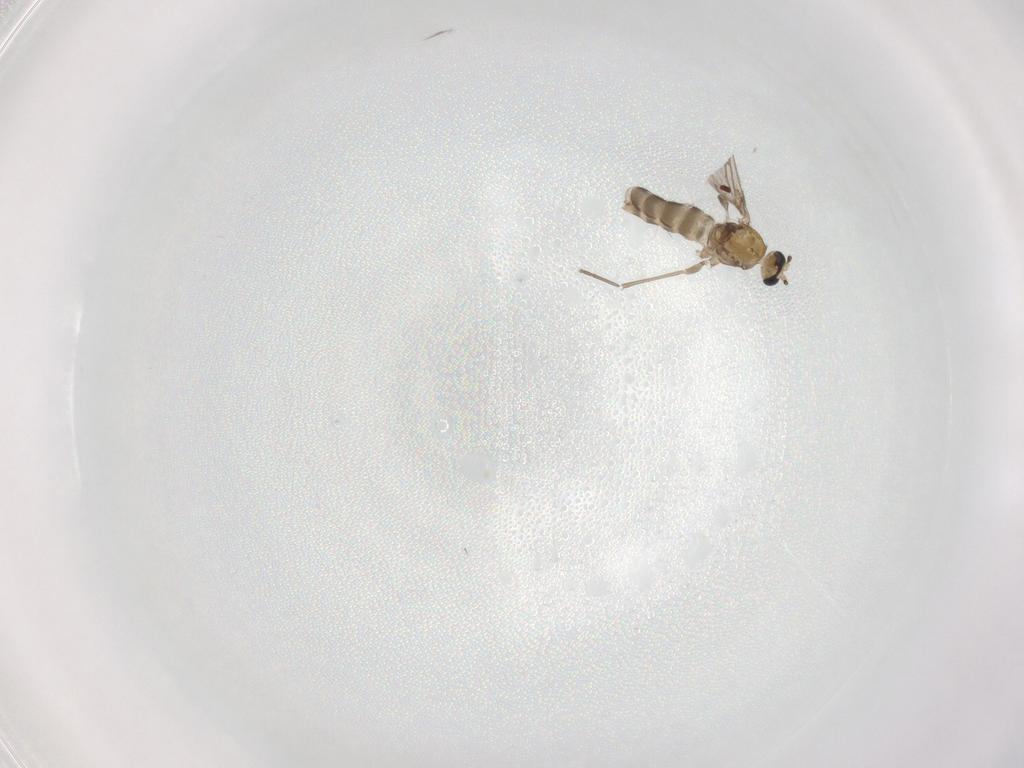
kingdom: Animalia
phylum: Arthropoda
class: Insecta
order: Diptera
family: Sciaridae
